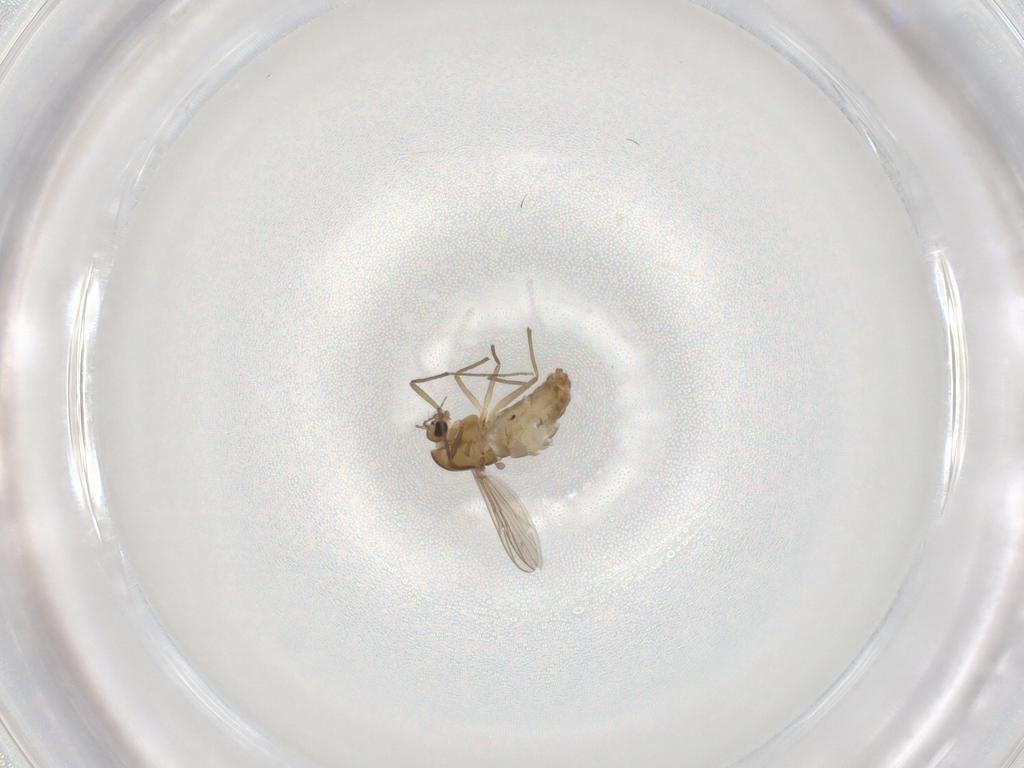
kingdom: Animalia
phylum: Arthropoda
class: Insecta
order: Diptera
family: Chironomidae
